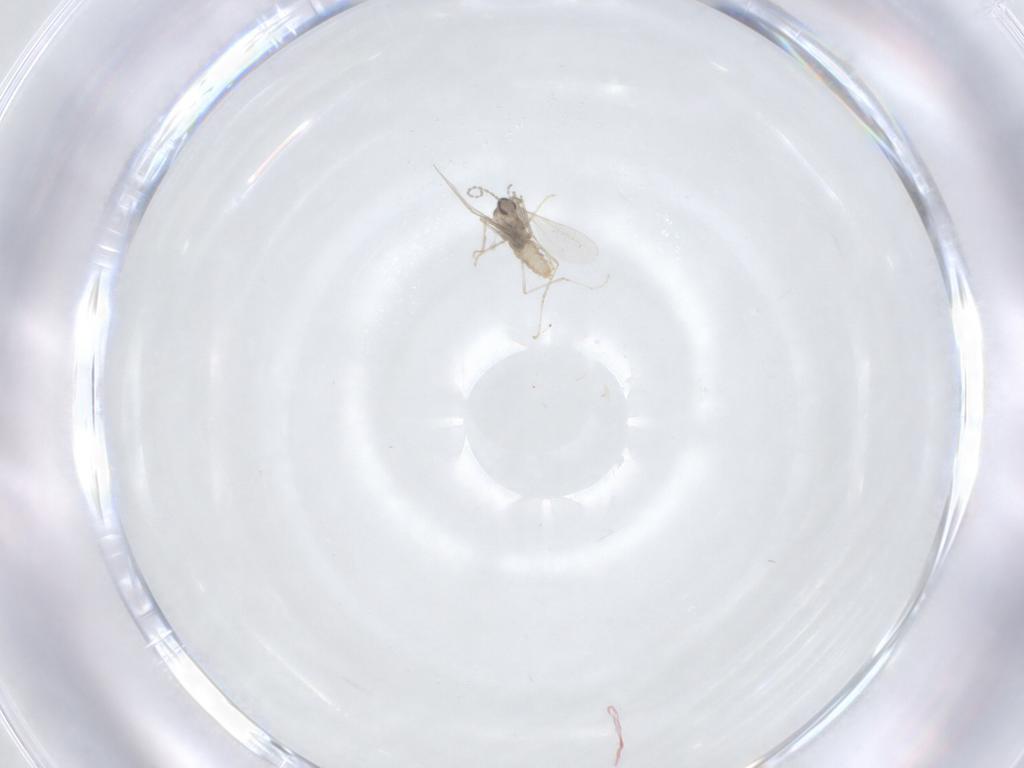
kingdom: Animalia
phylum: Arthropoda
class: Insecta
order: Diptera
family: Cecidomyiidae
